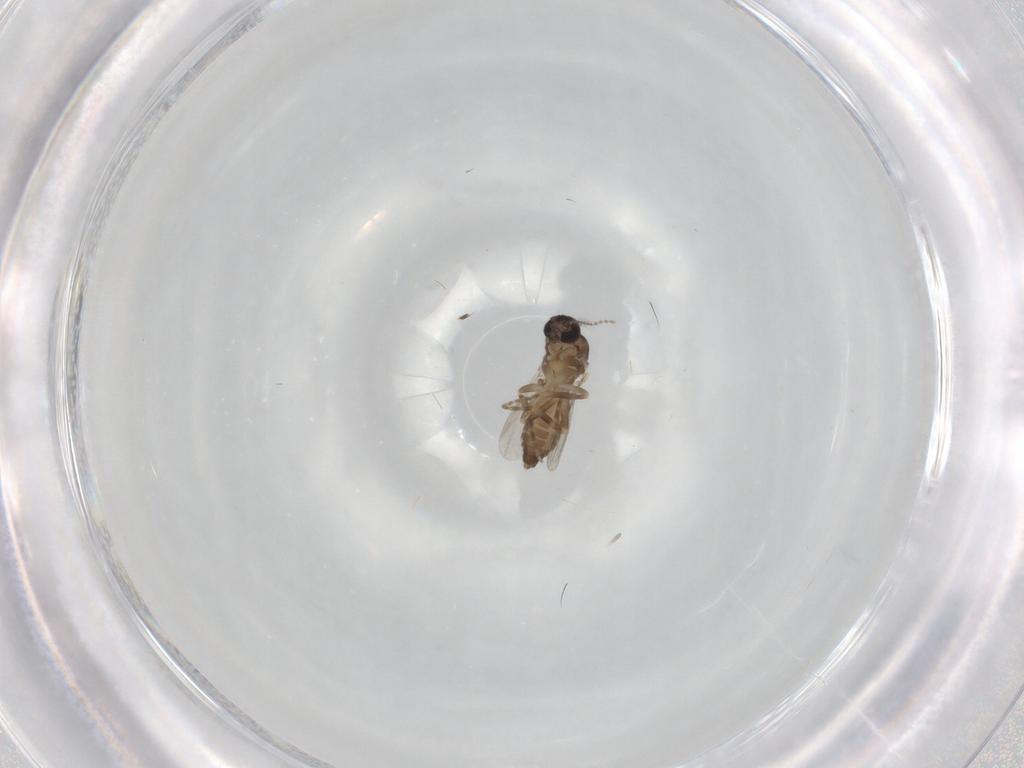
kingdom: Animalia
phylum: Arthropoda
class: Insecta
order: Diptera
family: Ceratopogonidae
